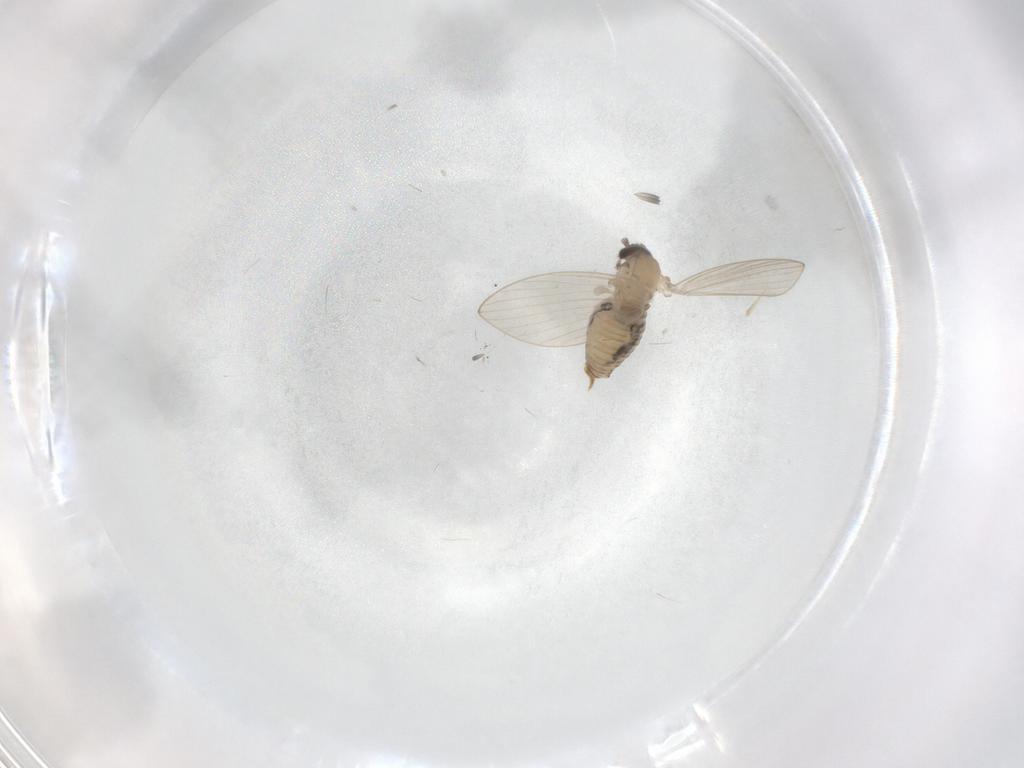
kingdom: Animalia
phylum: Arthropoda
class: Insecta
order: Diptera
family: Psychodidae
